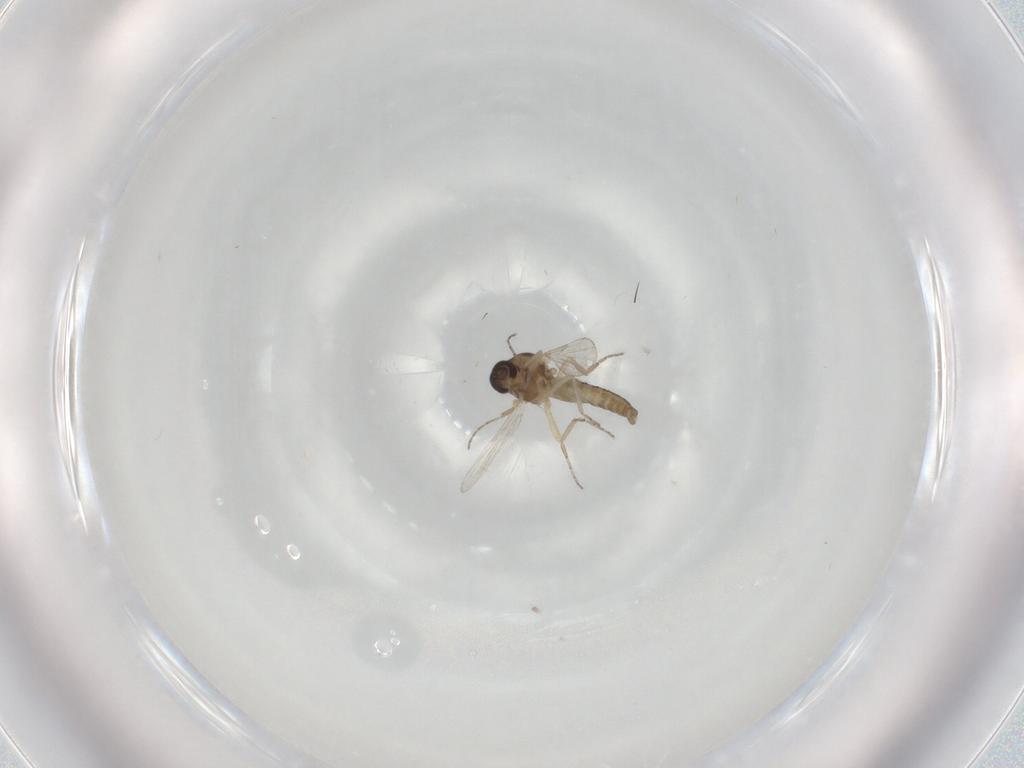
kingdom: Animalia
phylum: Arthropoda
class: Insecta
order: Diptera
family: Ceratopogonidae
